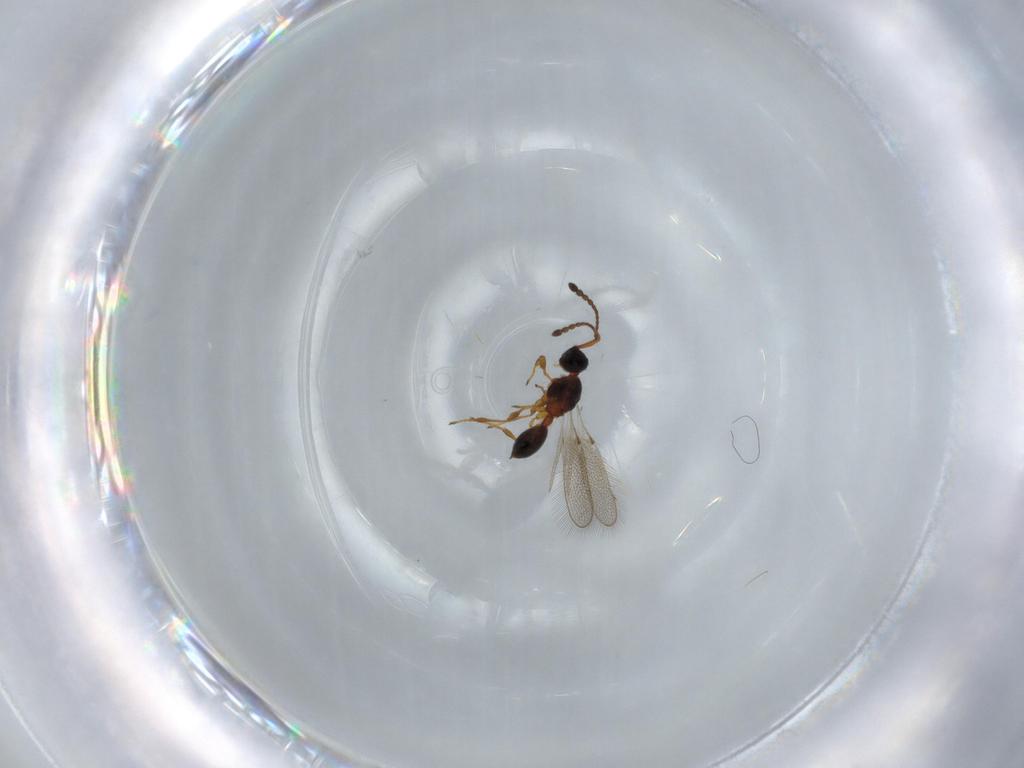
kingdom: Animalia
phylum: Arthropoda
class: Insecta
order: Hymenoptera
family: Diapriidae
